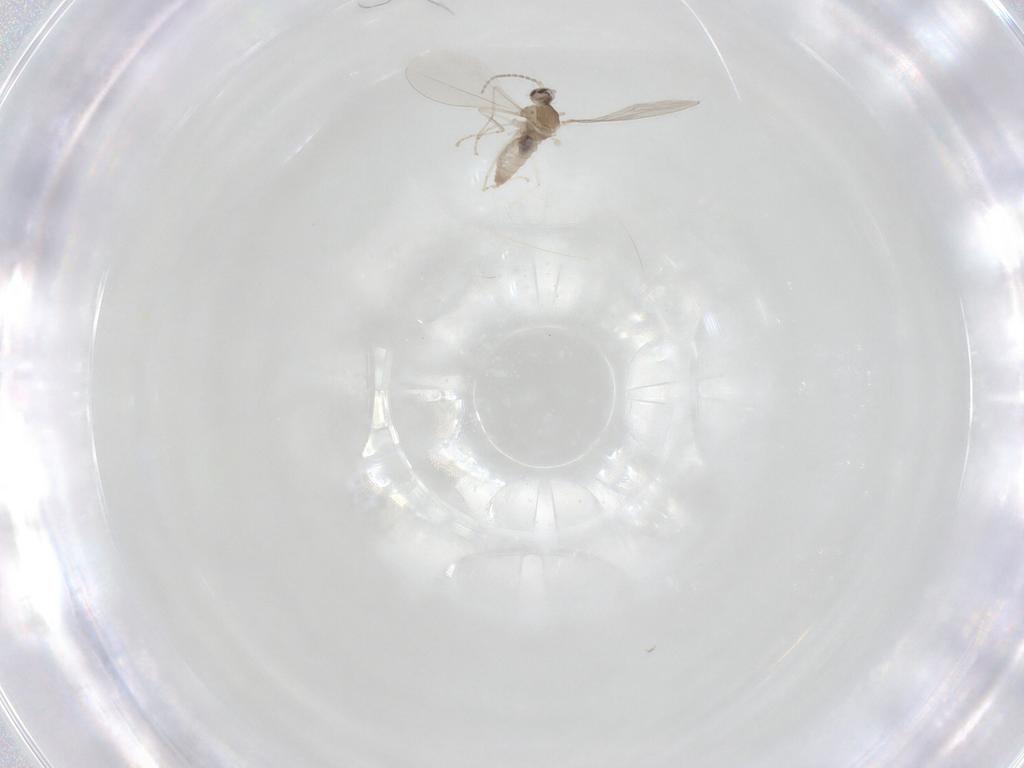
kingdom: Animalia
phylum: Arthropoda
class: Insecta
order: Diptera
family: Cecidomyiidae
